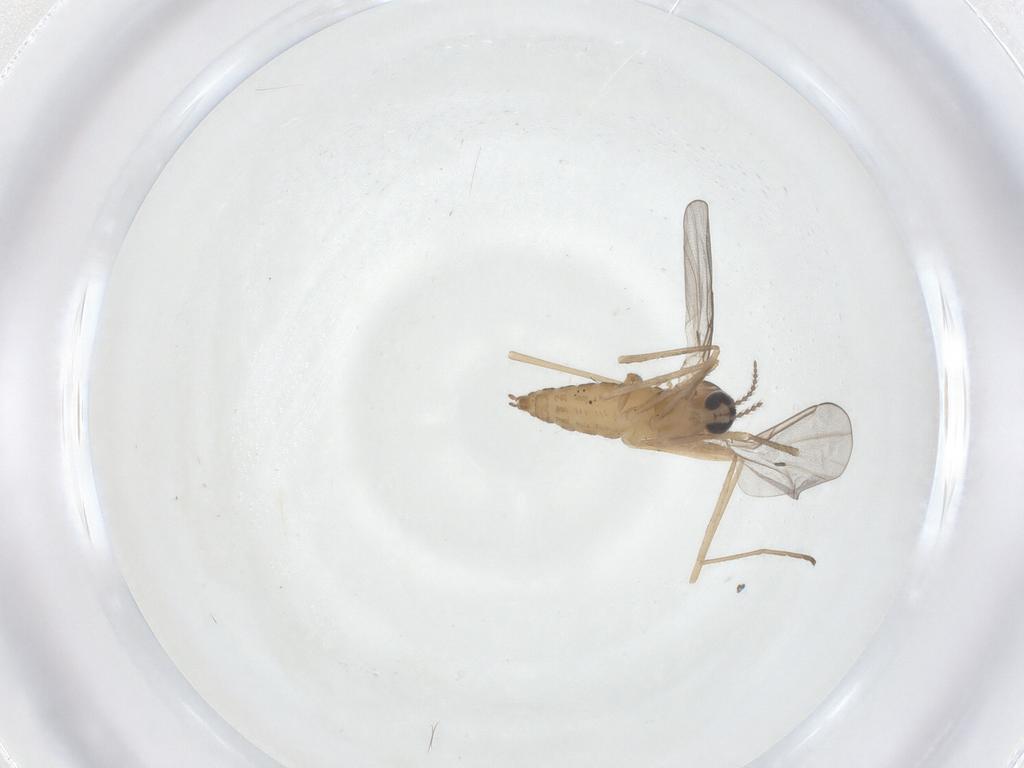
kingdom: Animalia
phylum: Arthropoda
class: Insecta
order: Diptera
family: Cecidomyiidae
